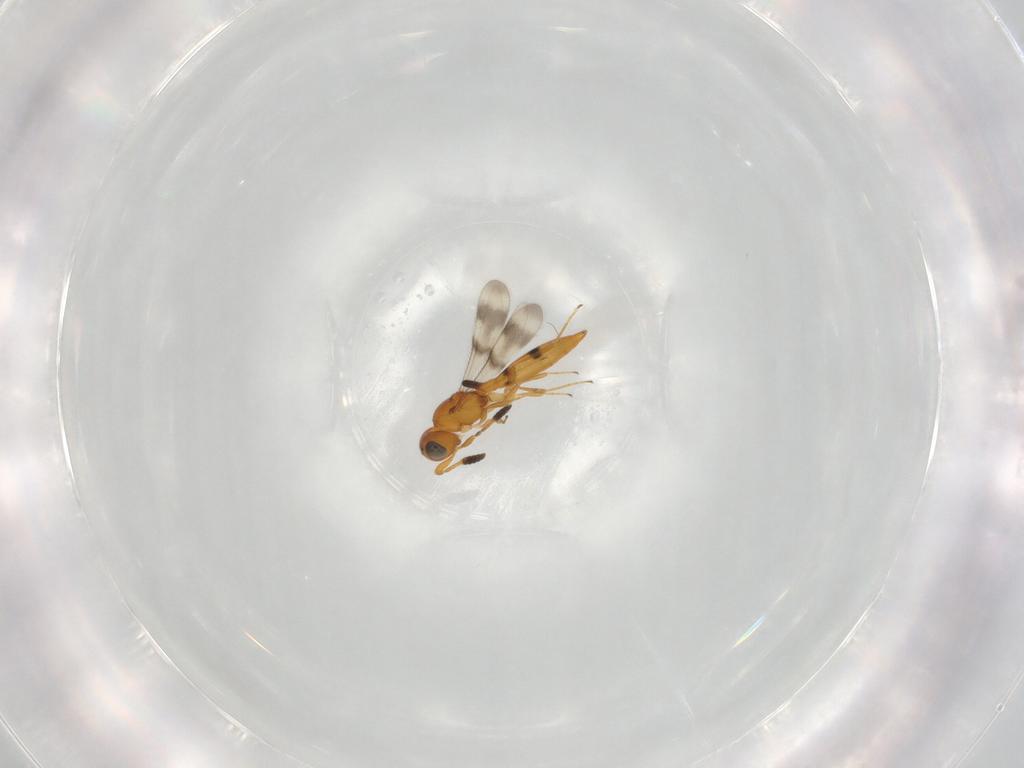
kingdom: Animalia
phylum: Arthropoda
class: Insecta
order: Hymenoptera
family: Scelionidae
